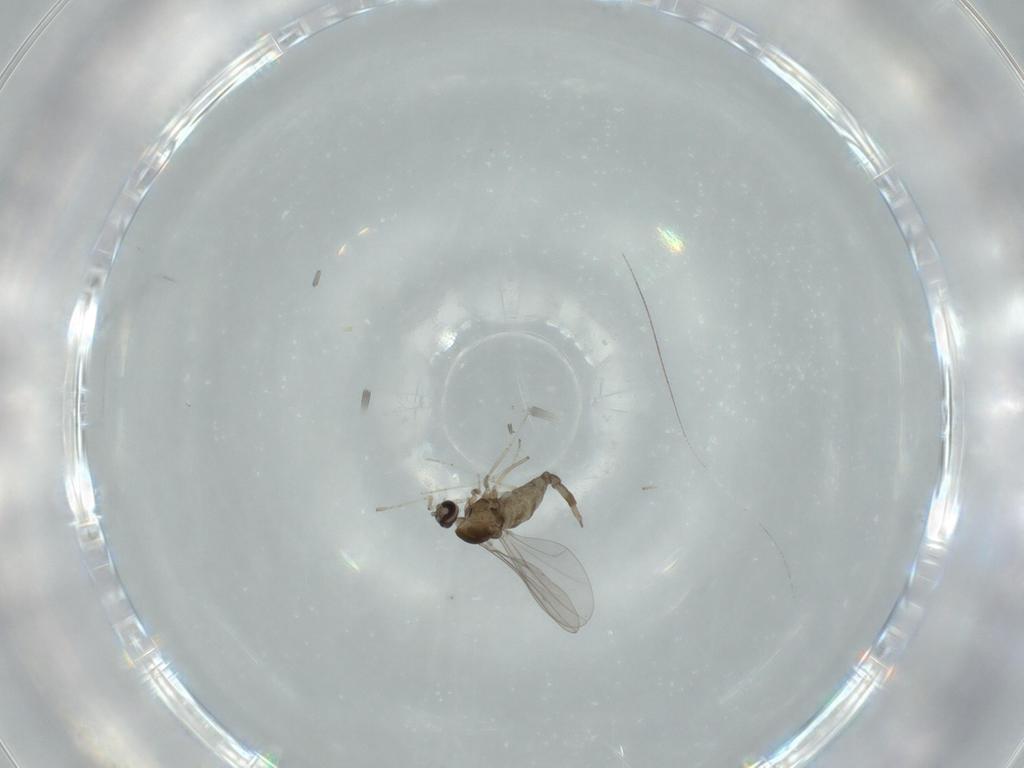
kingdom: Animalia
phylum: Arthropoda
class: Insecta
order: Diptera
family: Cecidomyiidae
